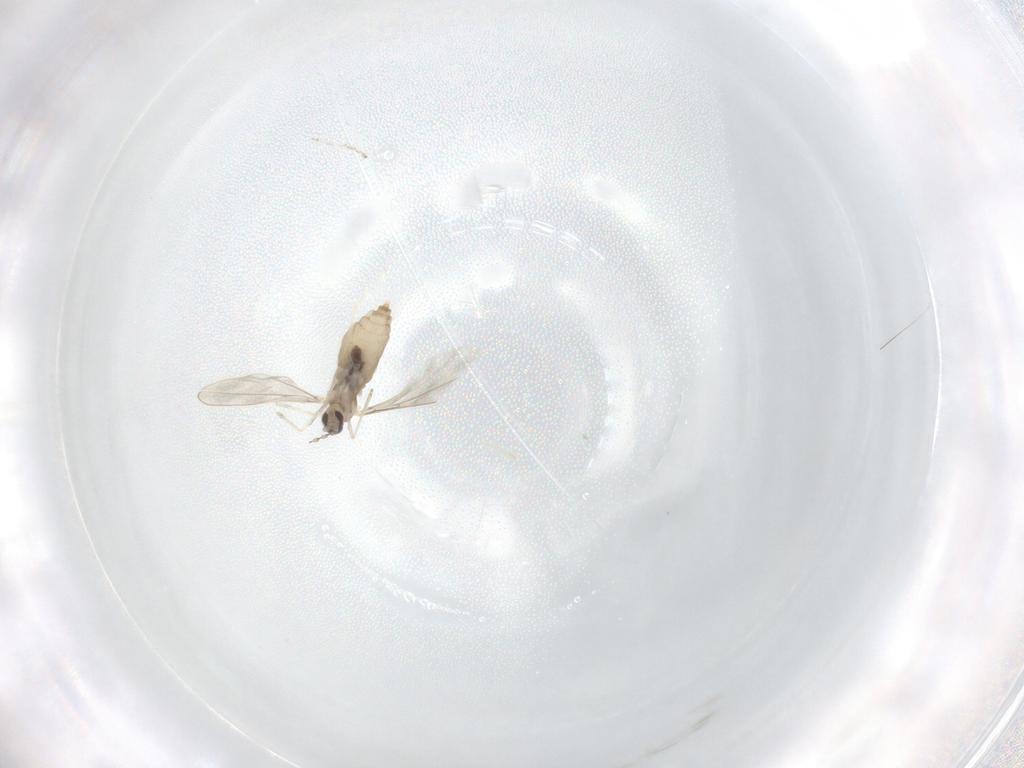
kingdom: Animalia
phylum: Arthropoda
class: Insecta
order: Diptera
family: Cecidomyiidae
